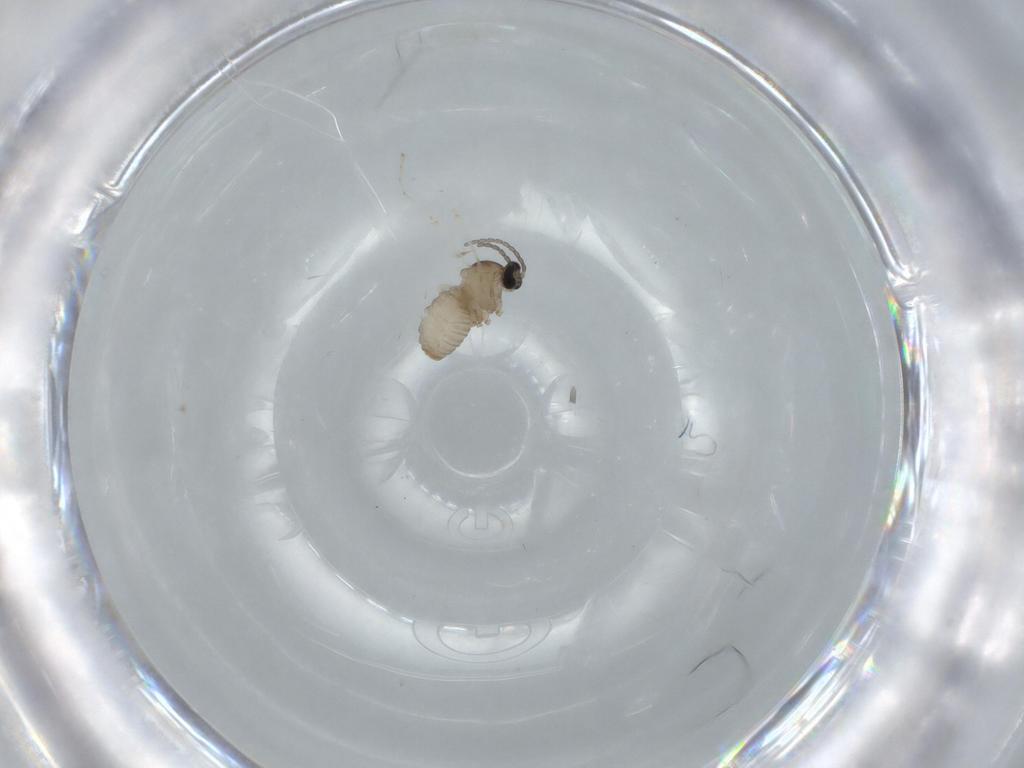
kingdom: Animalia
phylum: Arthropoda
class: Insecta
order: Diptera
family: Cecidomyiidae
